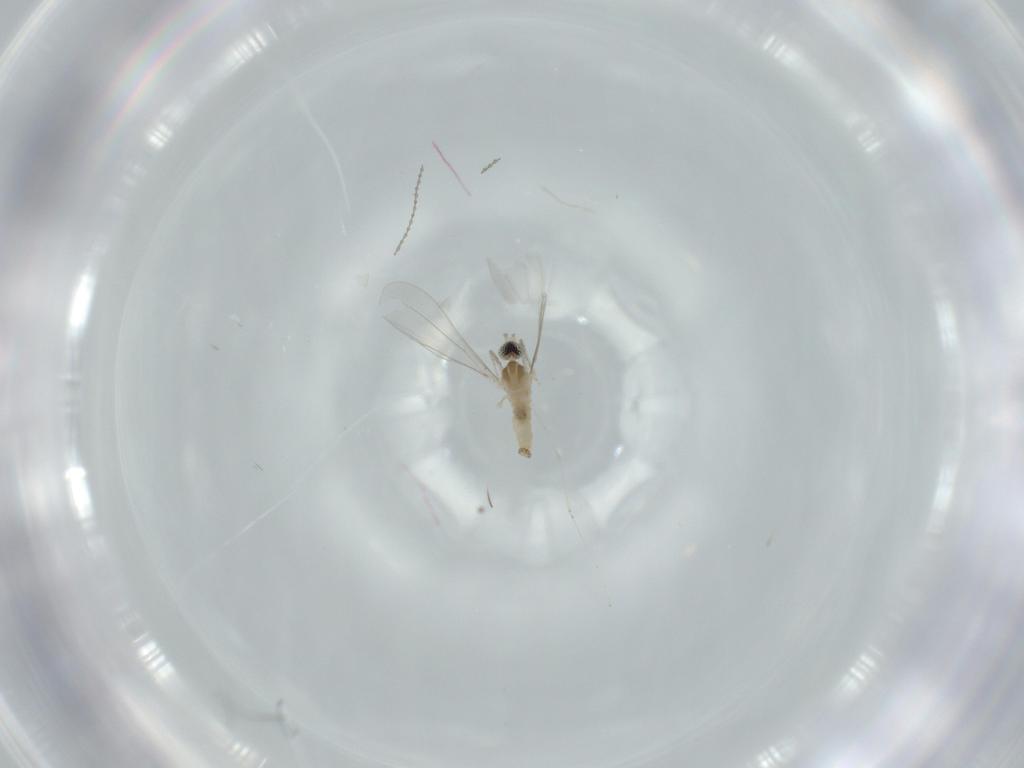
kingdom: Animalia
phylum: Arthropoda
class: Insecta
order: Diptera
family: Cecidomyiidae
